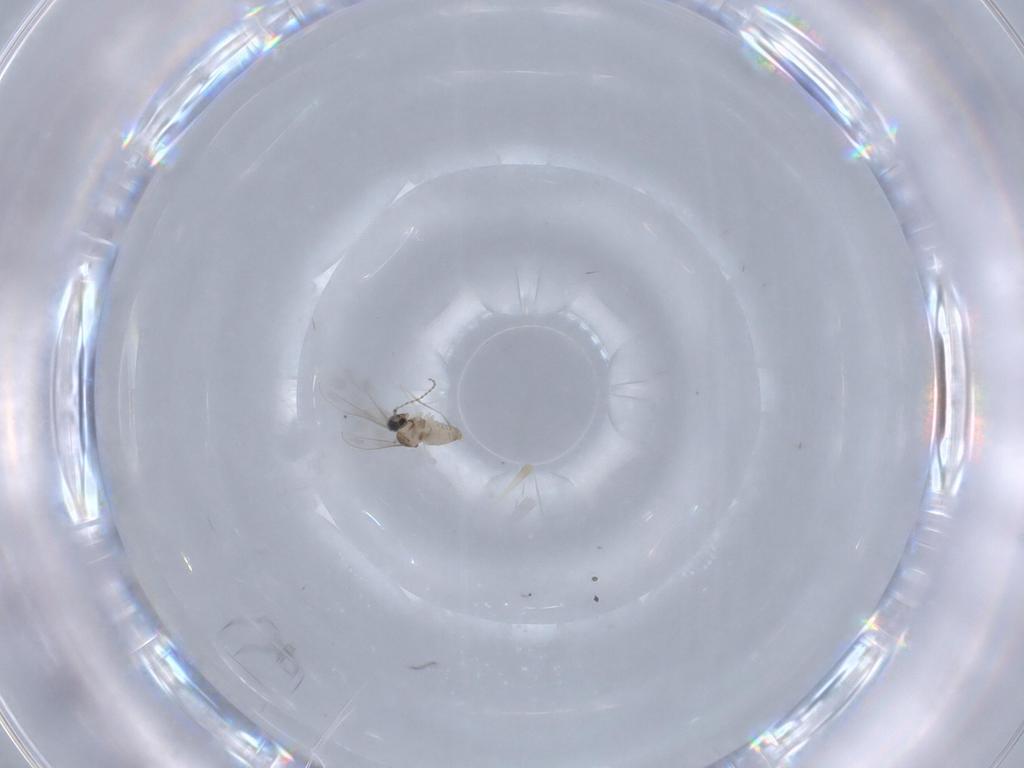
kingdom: Animalia
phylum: Arthropoda
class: Insecta
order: Diptera
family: Cecidomyiidae
